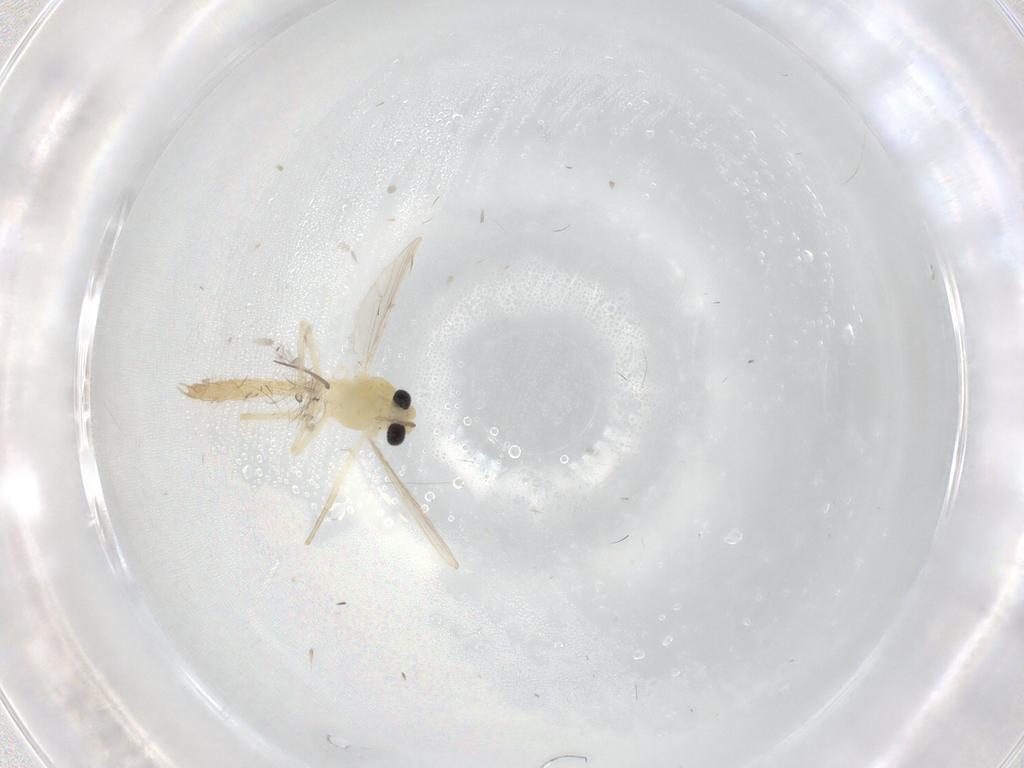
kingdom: Animalia
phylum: Arthropoda
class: Insecta
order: Diptera
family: Chironomidae
